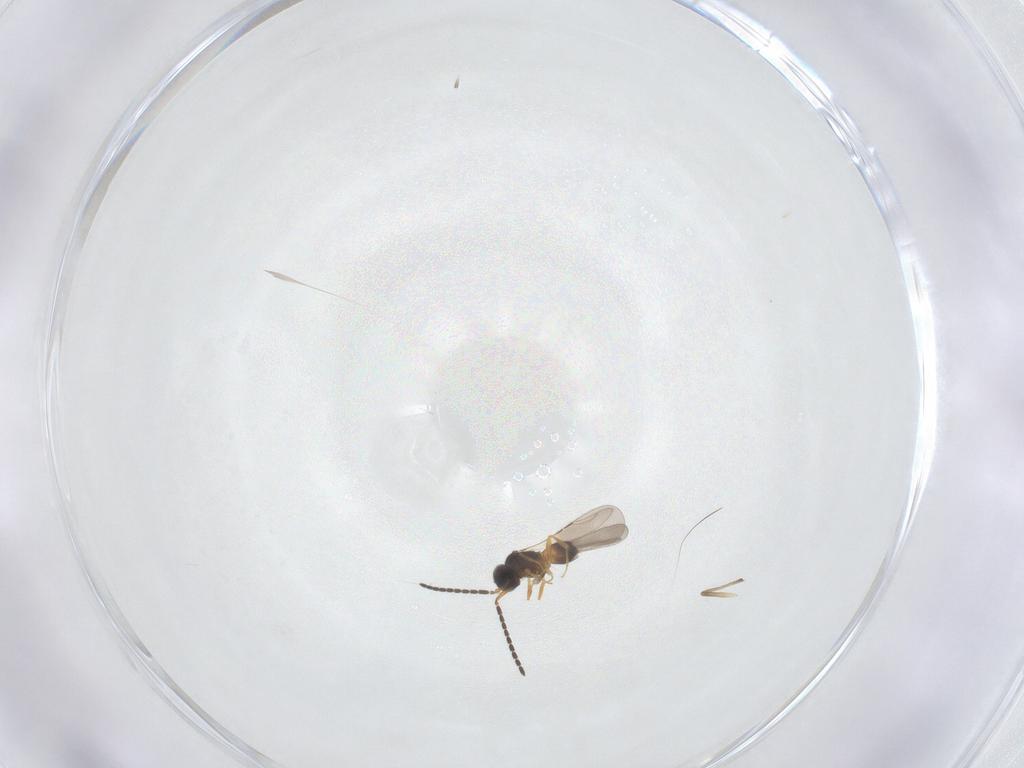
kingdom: Animalia
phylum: Arthropoda
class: Insecta
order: Hymenoptera
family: Ceraphronidae
